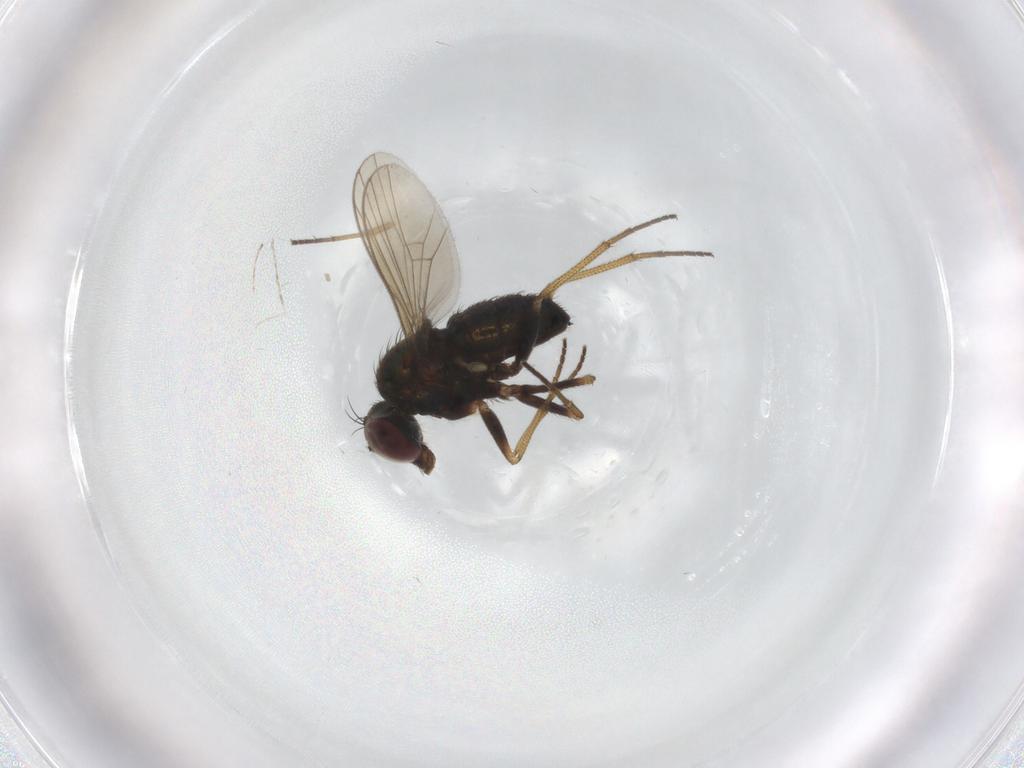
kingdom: Animalia
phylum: Arthropoda
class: Insecta
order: Diptera
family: Dolichopodidae
